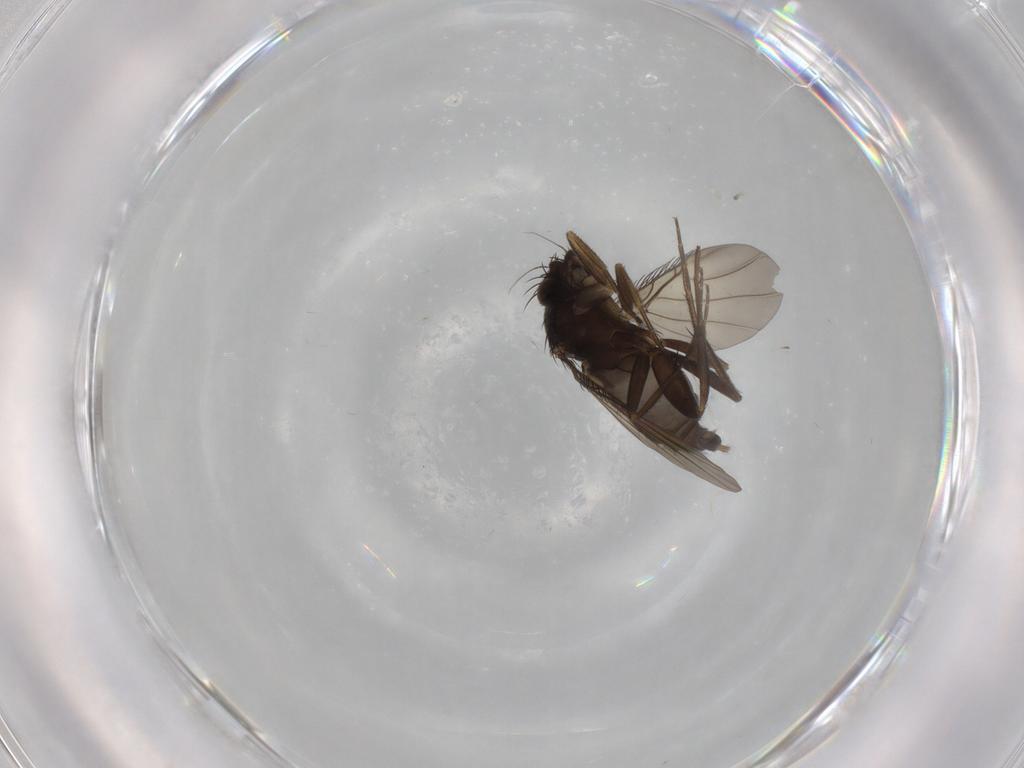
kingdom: Animalia
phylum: Arthropoda
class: Insecta
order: Diptera
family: Phoridae
